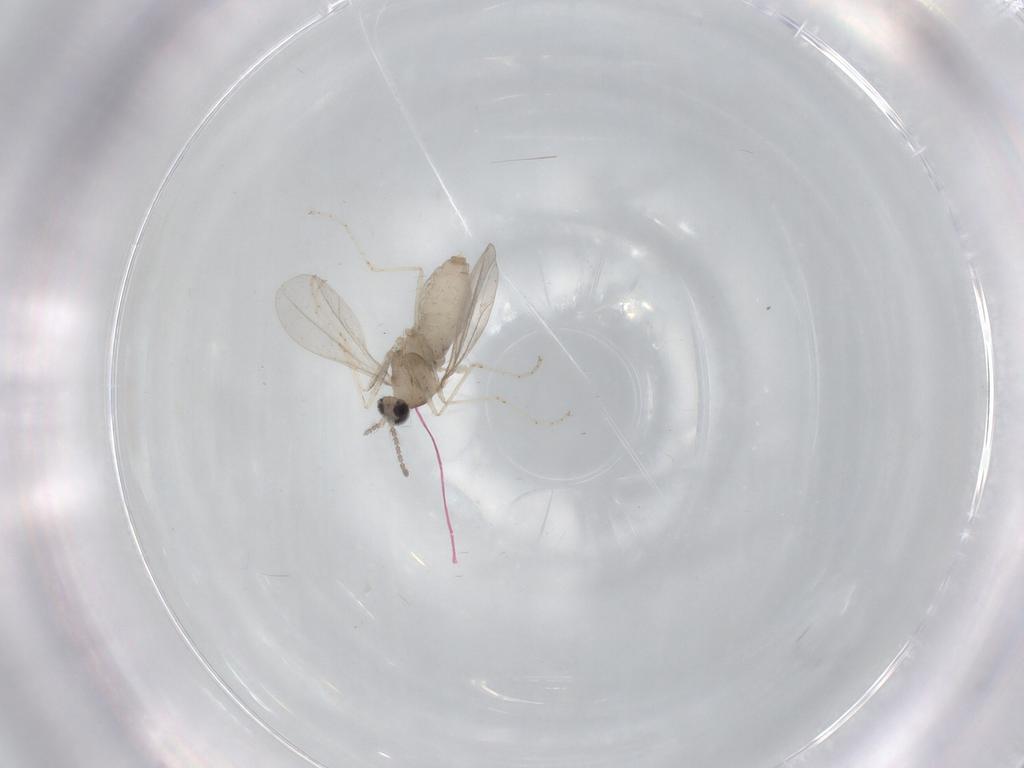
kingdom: Animalia
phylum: Arthropoda
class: Insecta
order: Diptera
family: Cecidomyiidae
